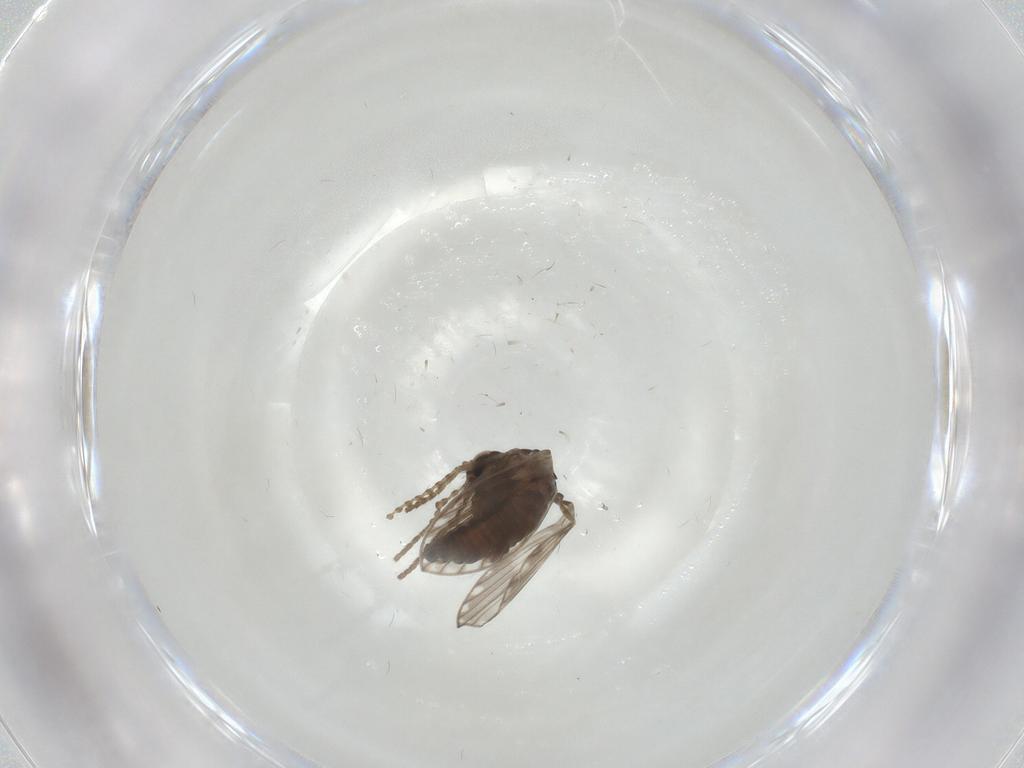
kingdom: Animalia
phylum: Arthropoda
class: Insecta
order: Diptera
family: Psychodidae
